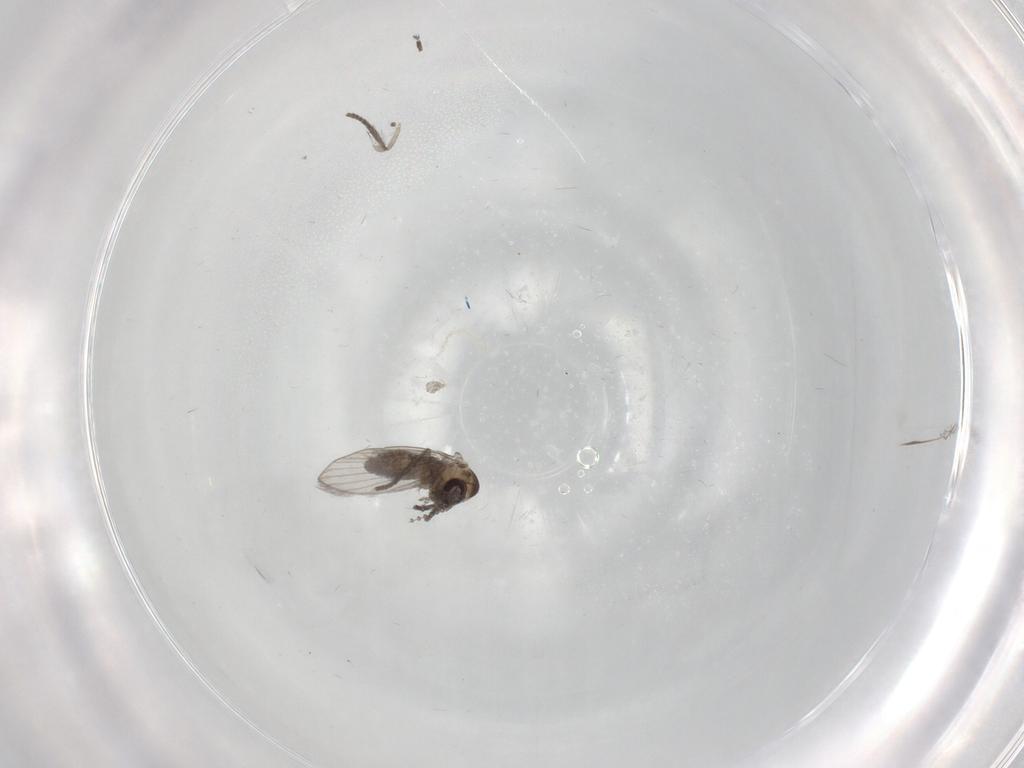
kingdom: Animalia
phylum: Arthropoda
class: Insecta
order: Diptera
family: Psychodidae
